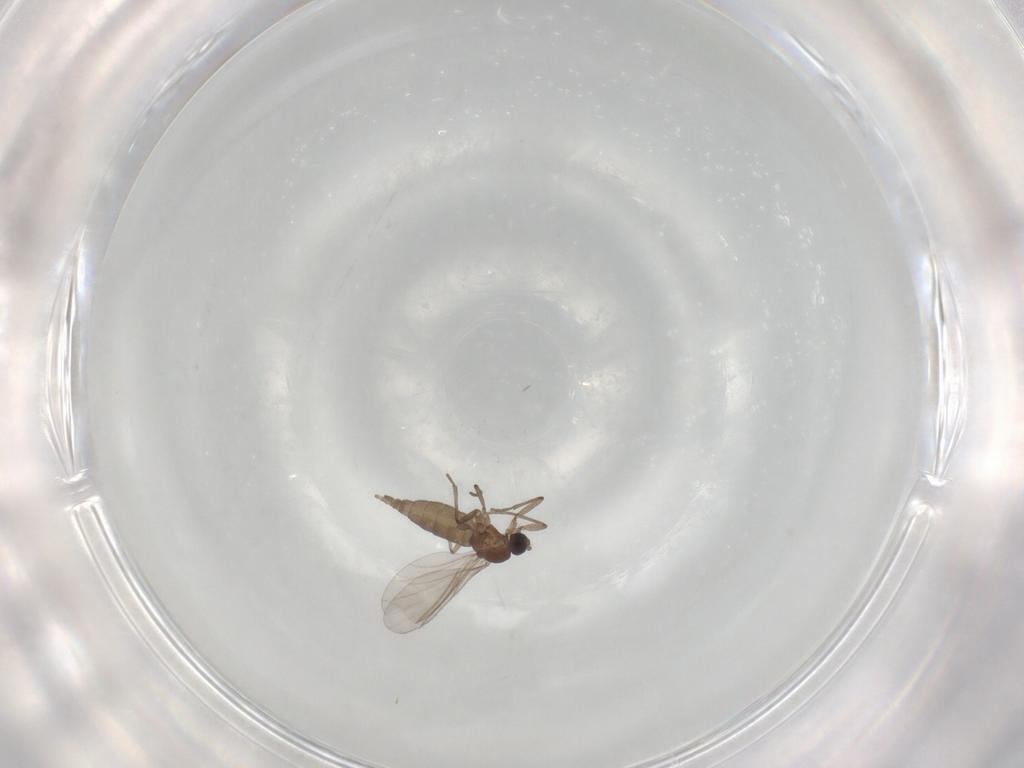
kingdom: Animalia
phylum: Arthropoda
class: Insecta
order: Diptera
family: Sciaridae
